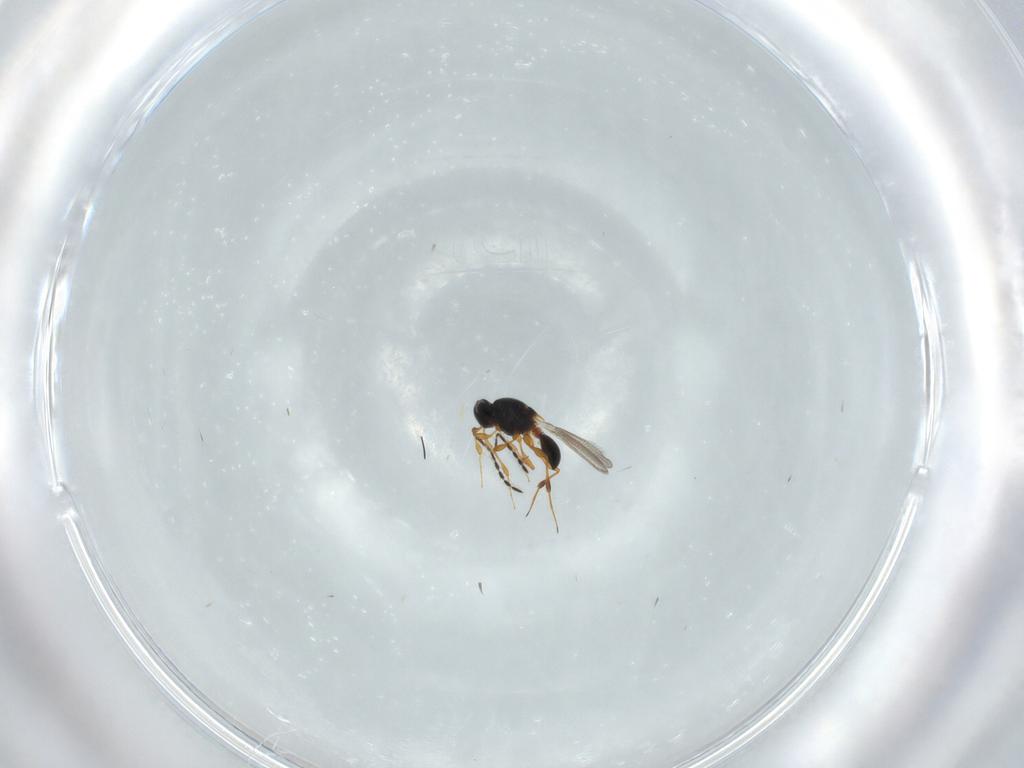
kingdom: Animalia
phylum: Arthropoda
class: Insecta
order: Hymenoptera
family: Platygastridae
